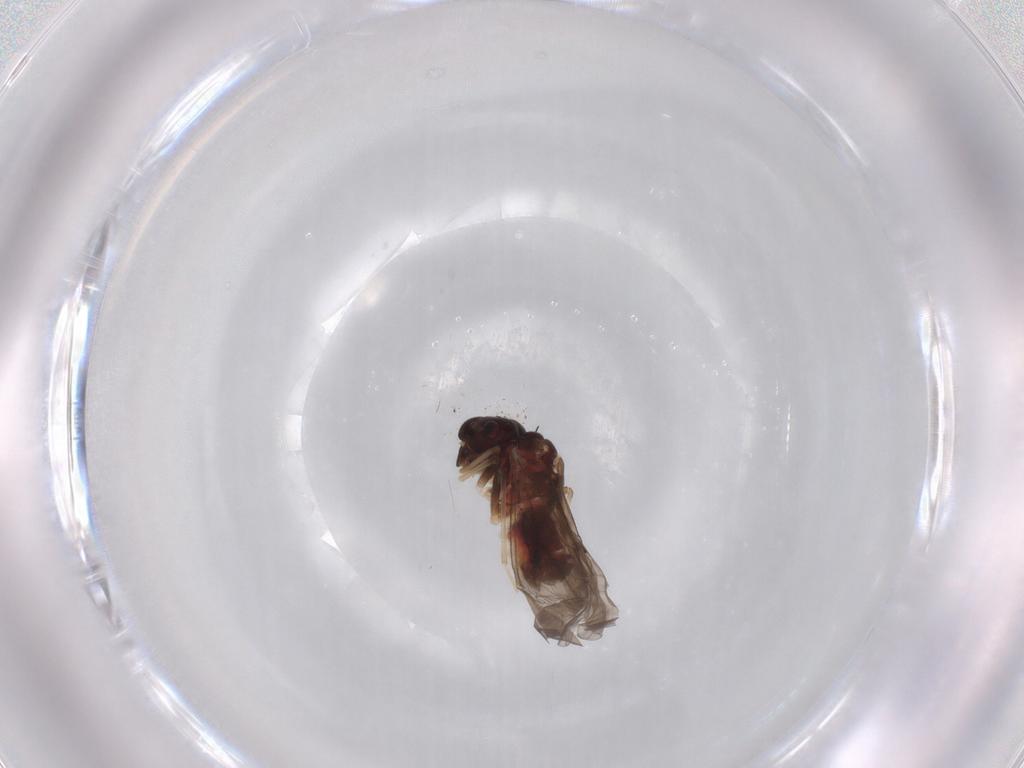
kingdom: Animalia
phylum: Arthropoda
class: Insecta
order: Psocodea
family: Caeciliusidae
